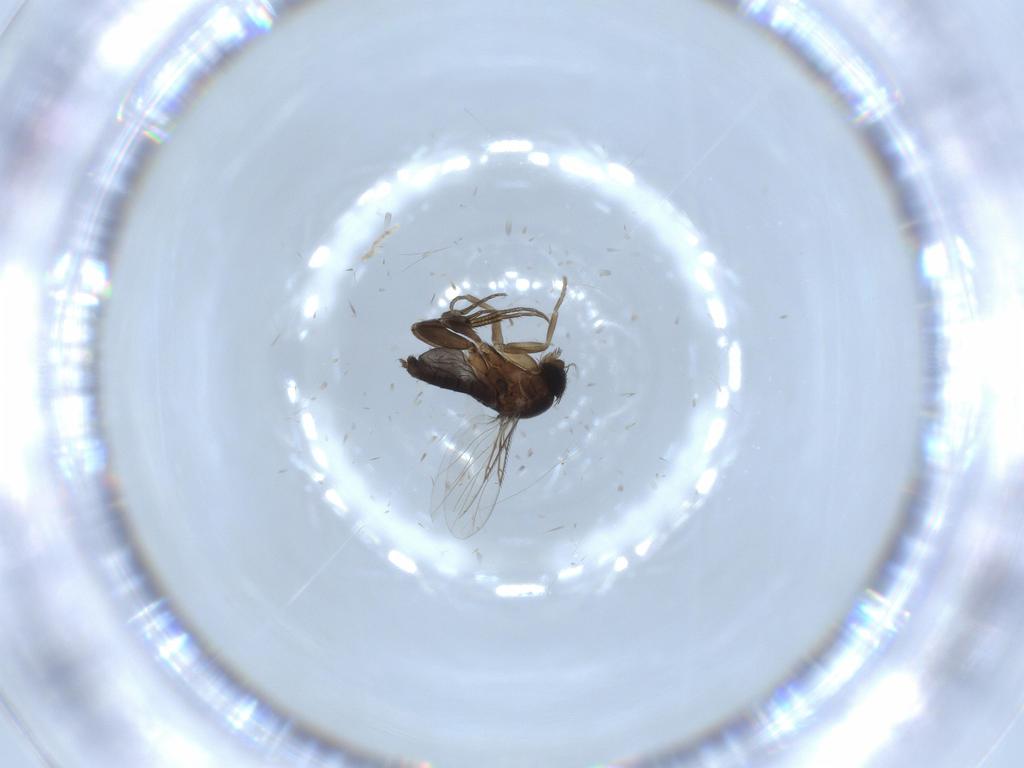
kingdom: Animalia
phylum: Arthropoda
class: Insecta
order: Diptera
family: Phoridae
